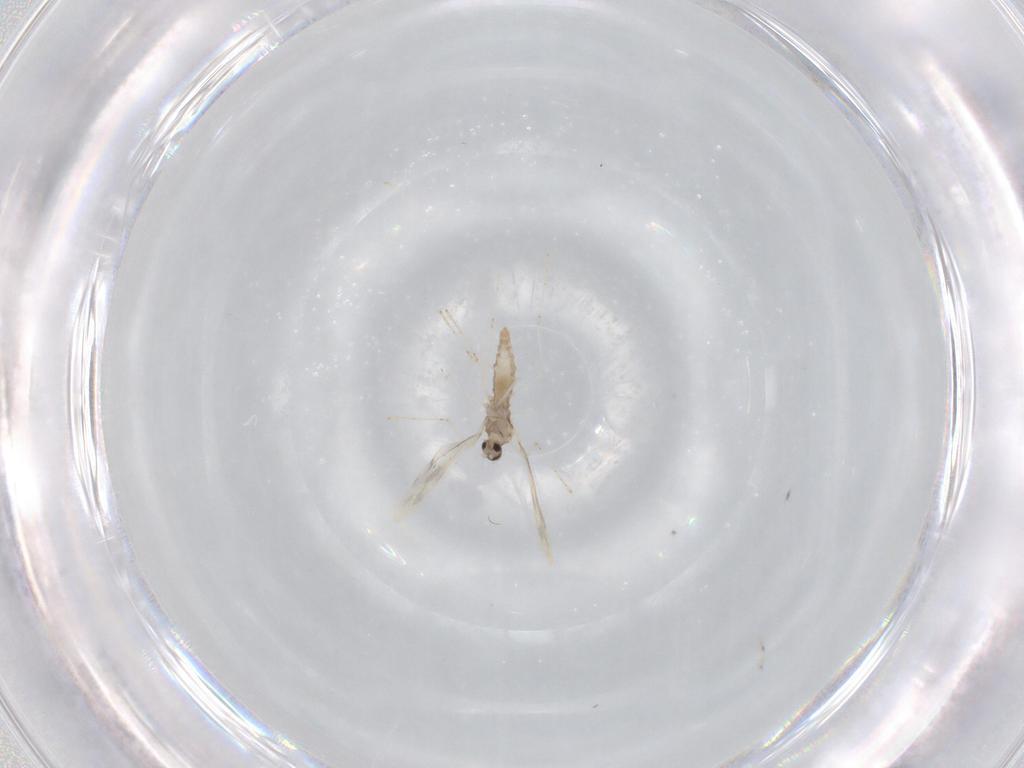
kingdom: Animalia
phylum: Arthropoda
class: Insecta
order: Diptera
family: Cecidomyiidae
